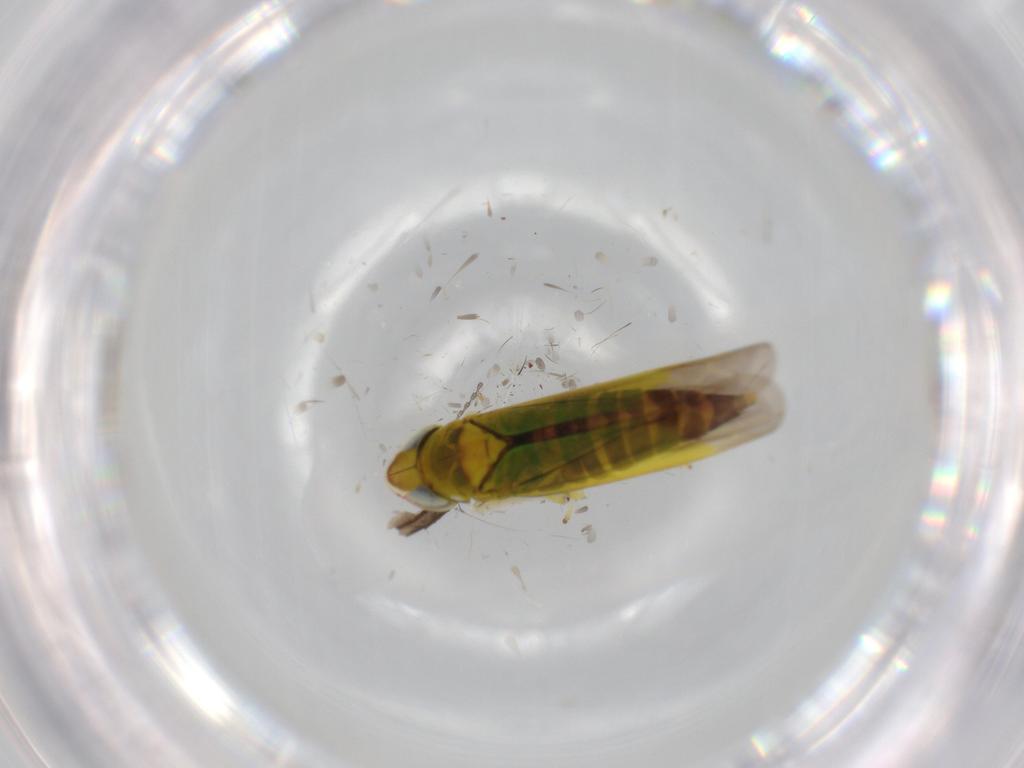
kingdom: Animalia
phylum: Arthropoda
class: Insecta
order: Hemiptera
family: Cicadellidae
